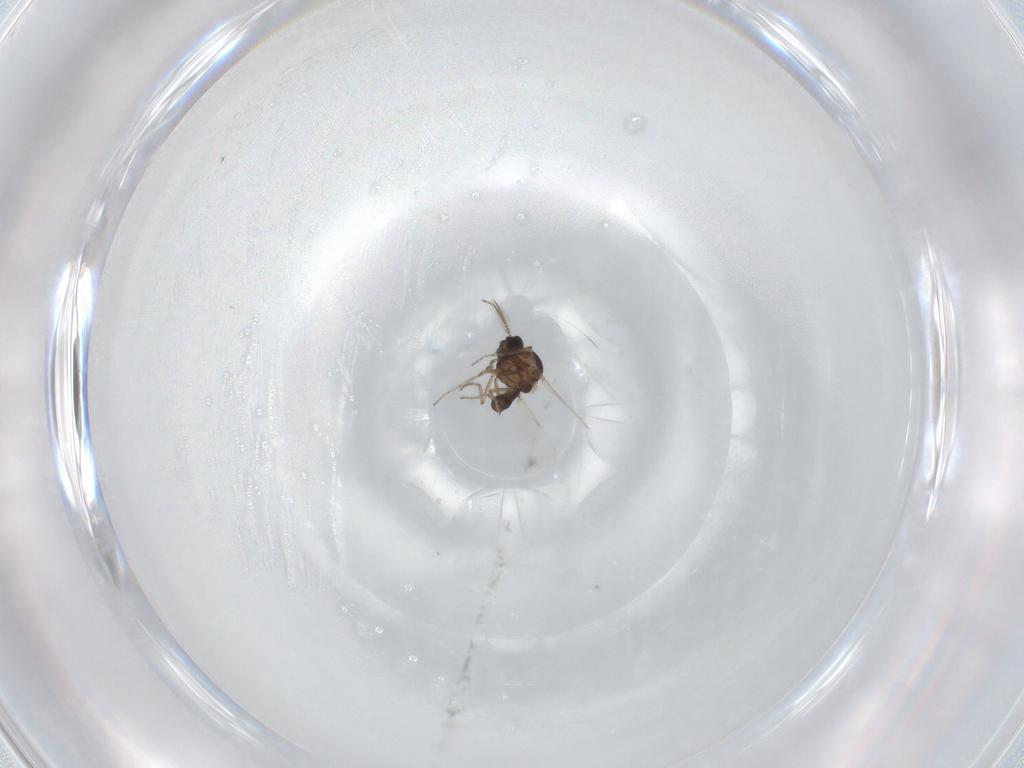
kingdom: Animalia
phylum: Arthropoda
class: Insecta
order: Diptera
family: Ceratopogonidae
